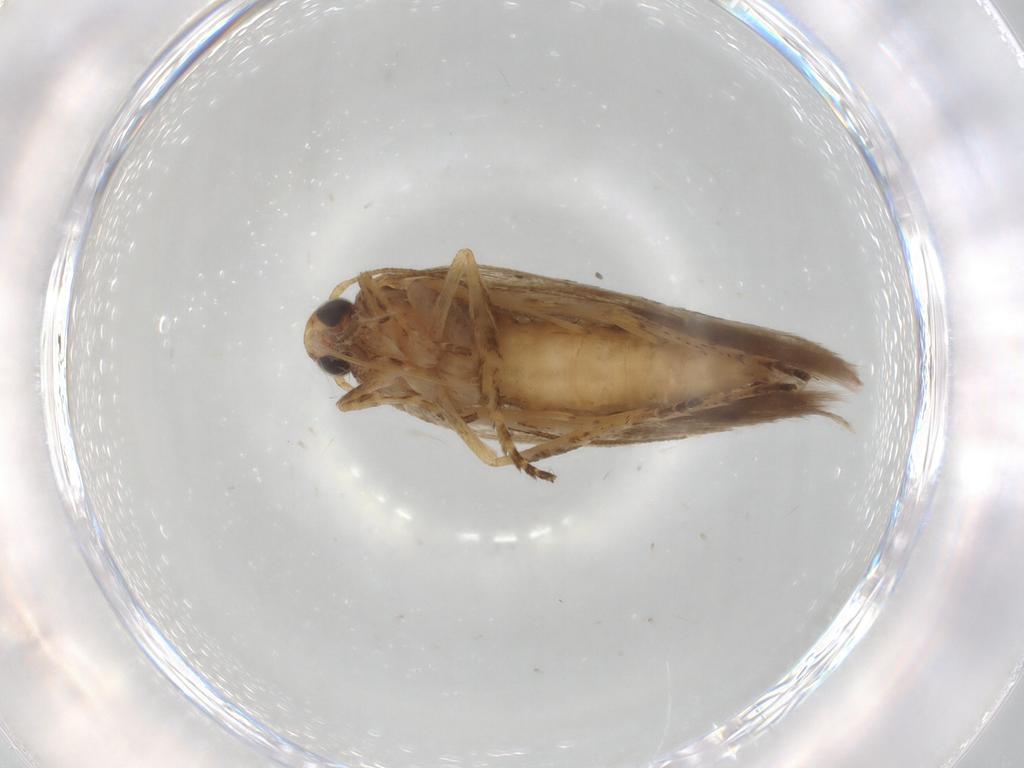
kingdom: Animalia
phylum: Arthropoda
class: Insecta
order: Lepidoptera
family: Gelechiidae
